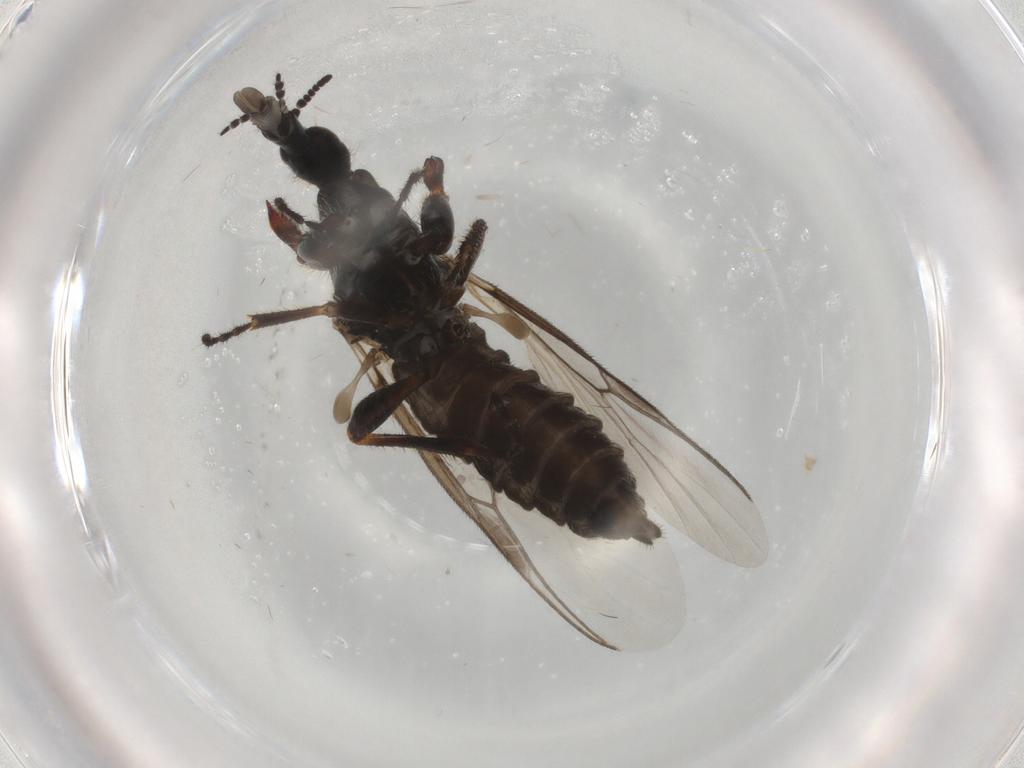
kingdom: Animalia
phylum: Arthropoda
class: Insecta
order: Diptera
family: Bibionidae
